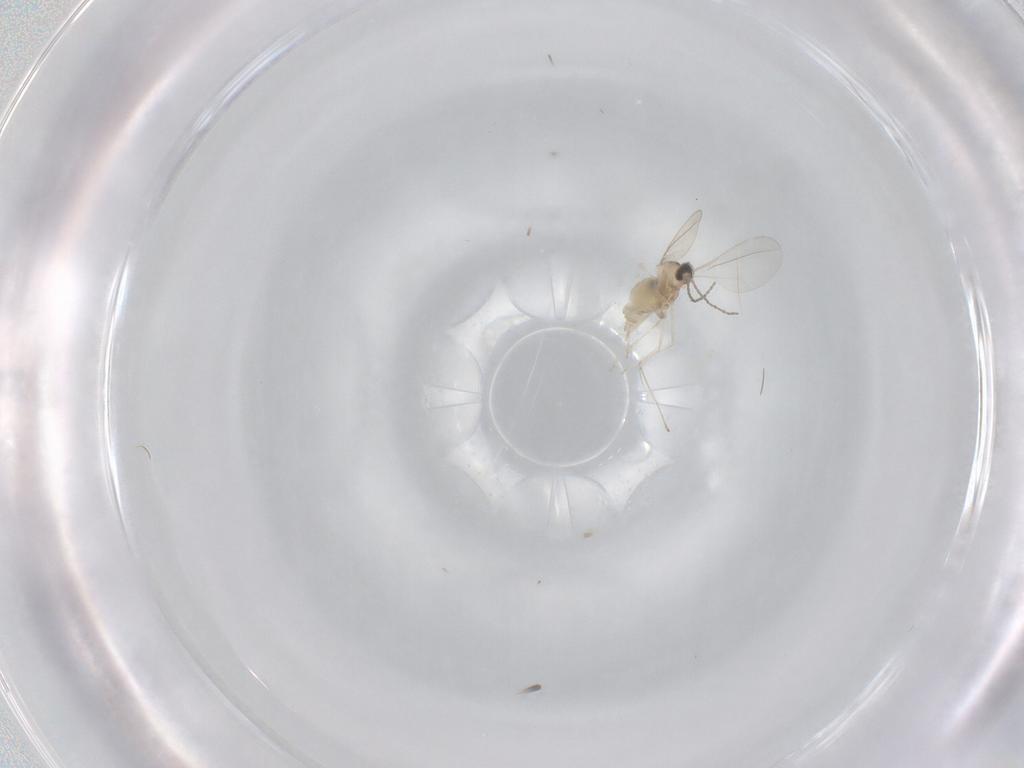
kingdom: Animalia
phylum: Arthropoda
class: Insecta
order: Diptera
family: Cecidomyiidae
